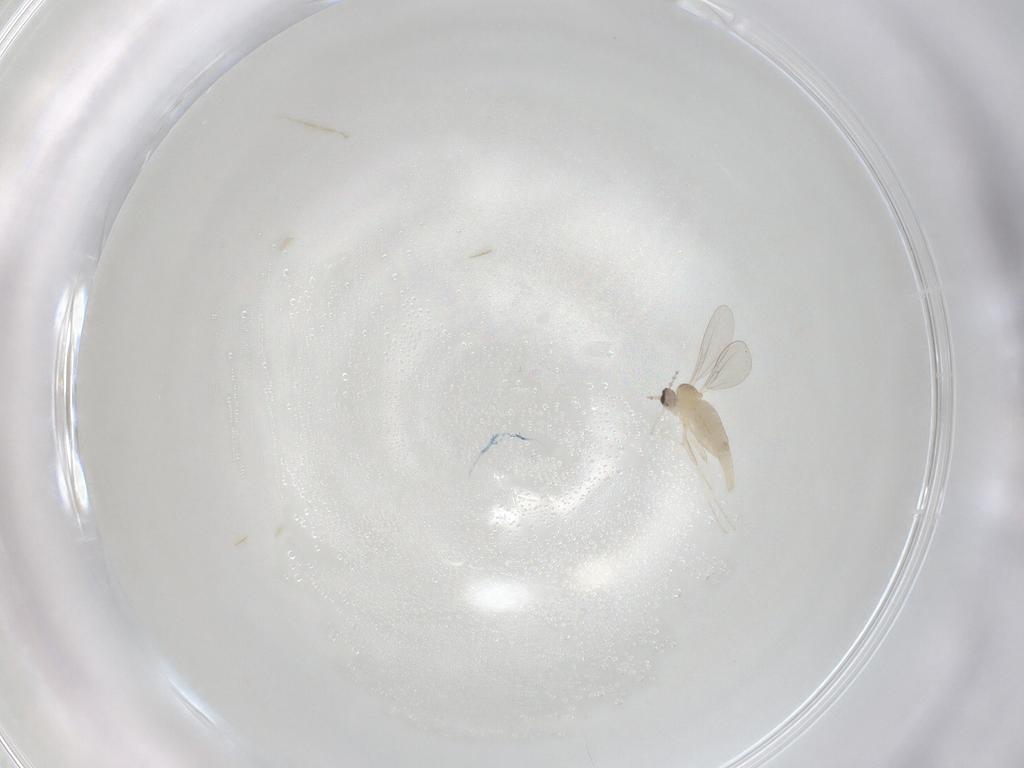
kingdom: Animalia
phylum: Arthropoda
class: Insecta
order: Diptera
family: Cecidomyiidae
